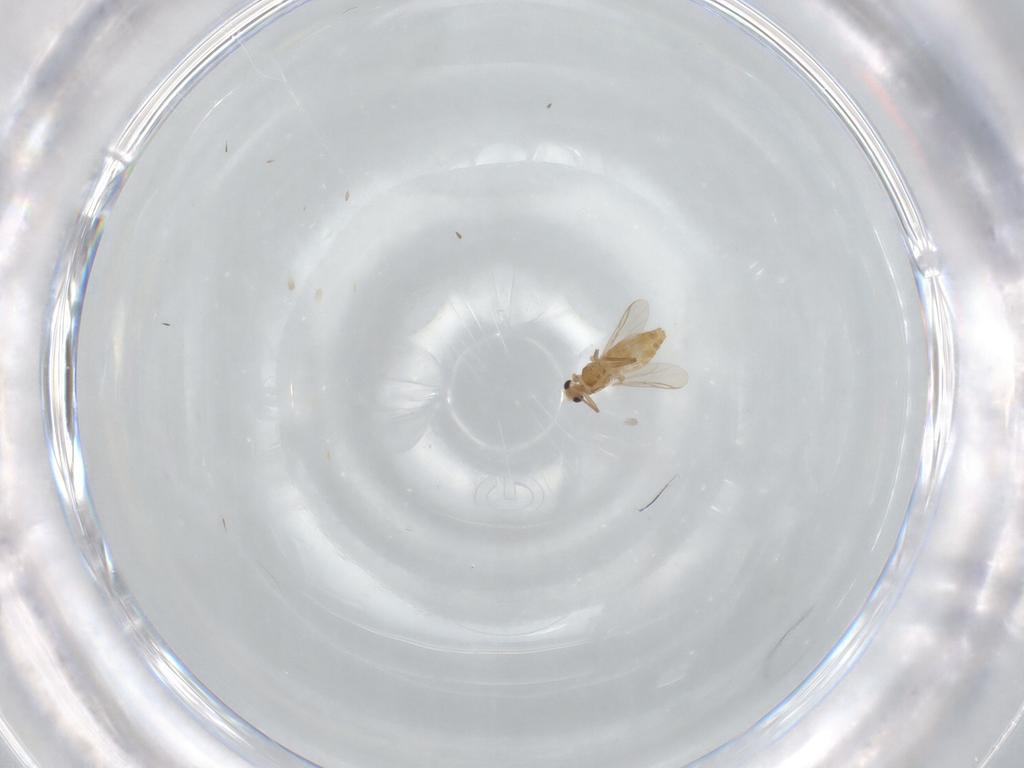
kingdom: Animalia
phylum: Arthropoda
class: Insecta
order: Diptera
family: Chironomidae
